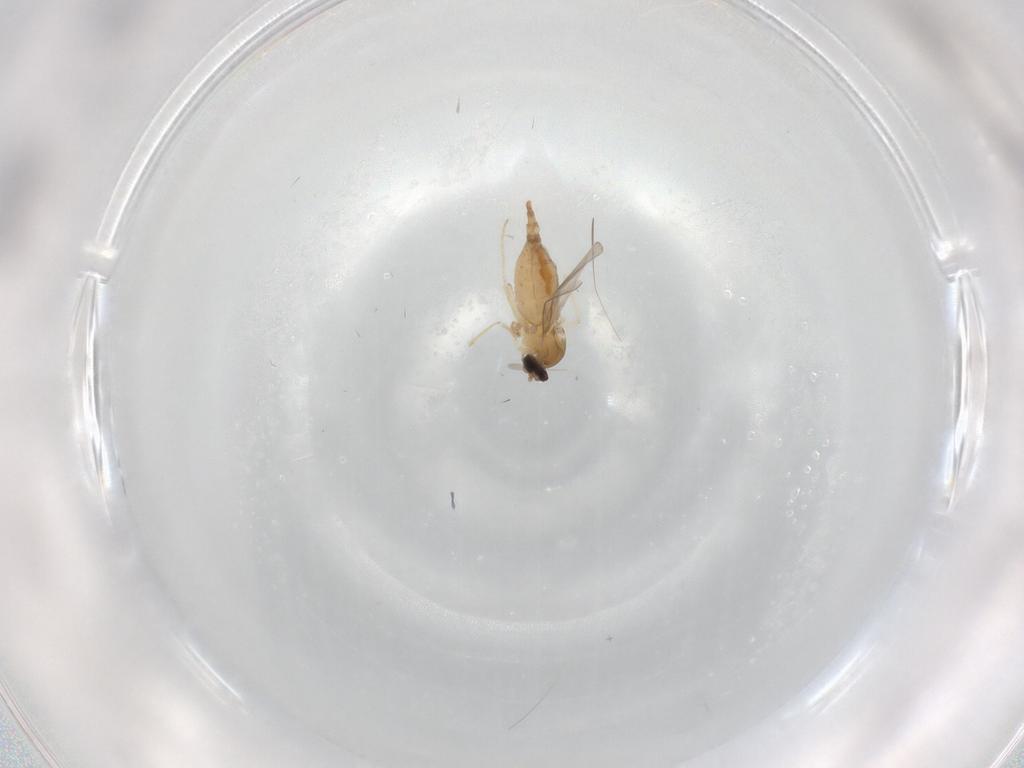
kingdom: Animalia
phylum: Arthropoda
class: Insecta
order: Diptera
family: Cecidomyiidae
